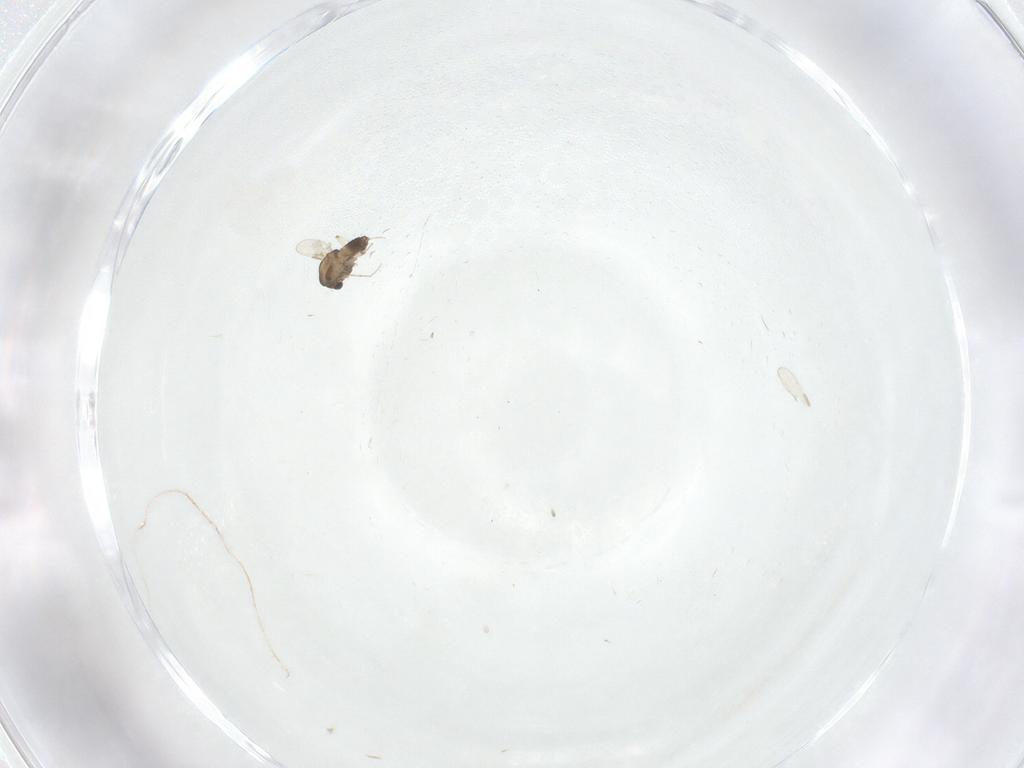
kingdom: Animalia
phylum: Arthropoda
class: Insecta
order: Diptera
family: Chironomidae
